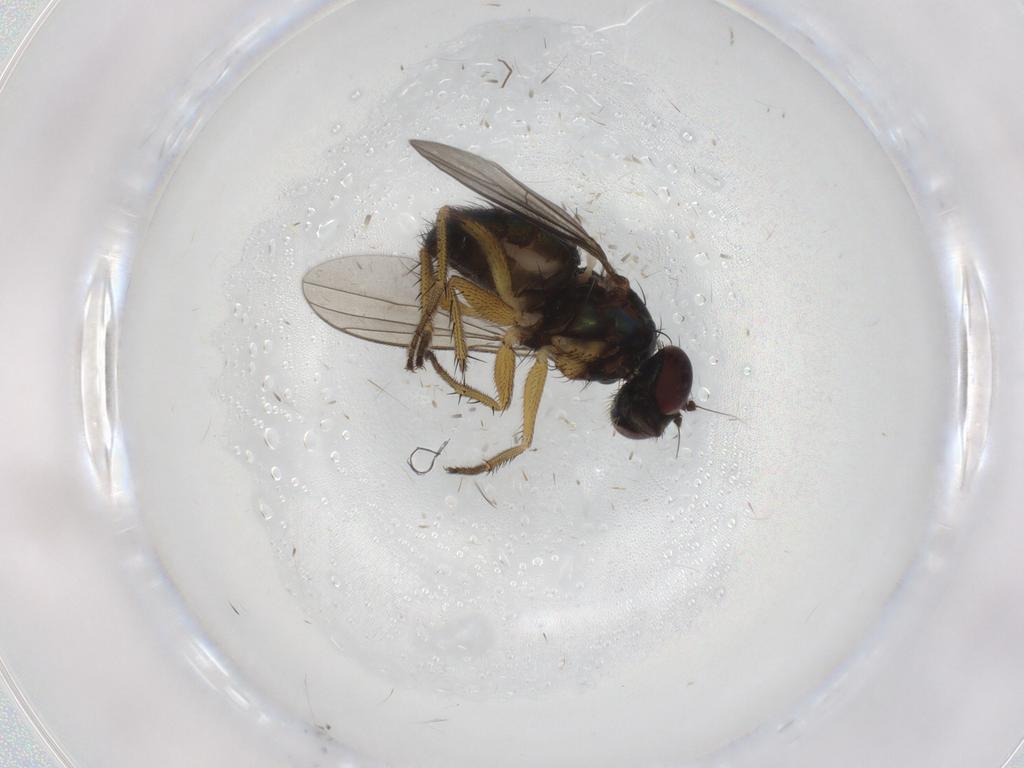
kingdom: Animalia
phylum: Arthropoda
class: Insecta
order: Diptera
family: Dolichopodidae
